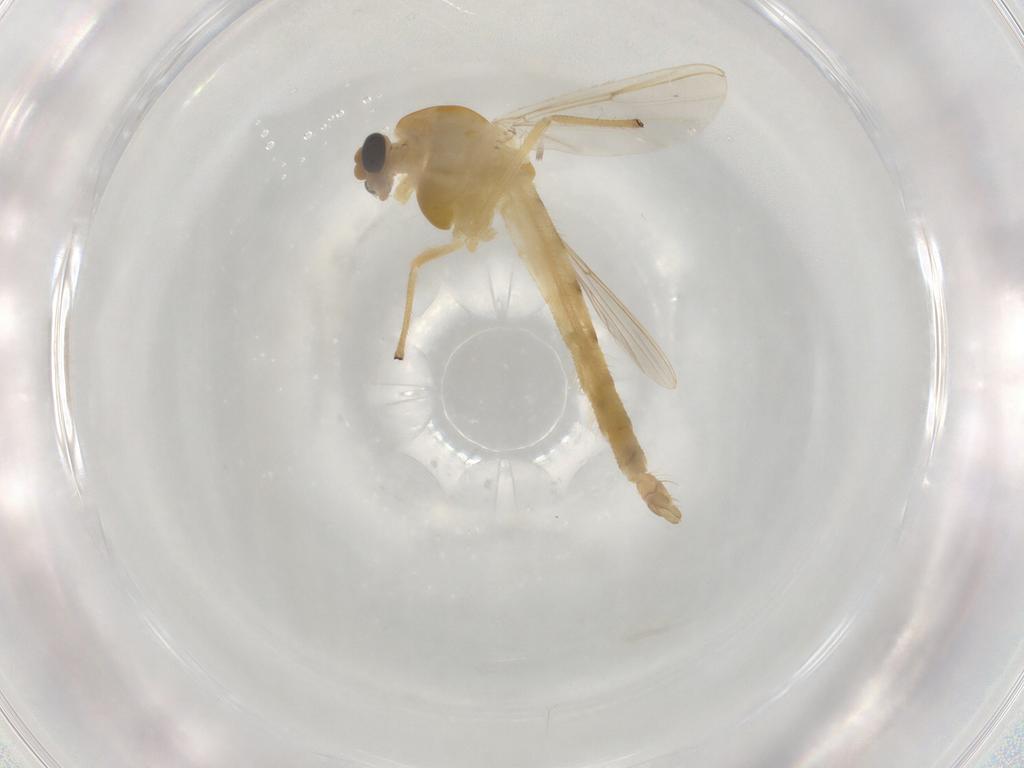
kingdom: Animalia
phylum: Arthropoda
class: Insecta
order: Diptera
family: Chironomidae
